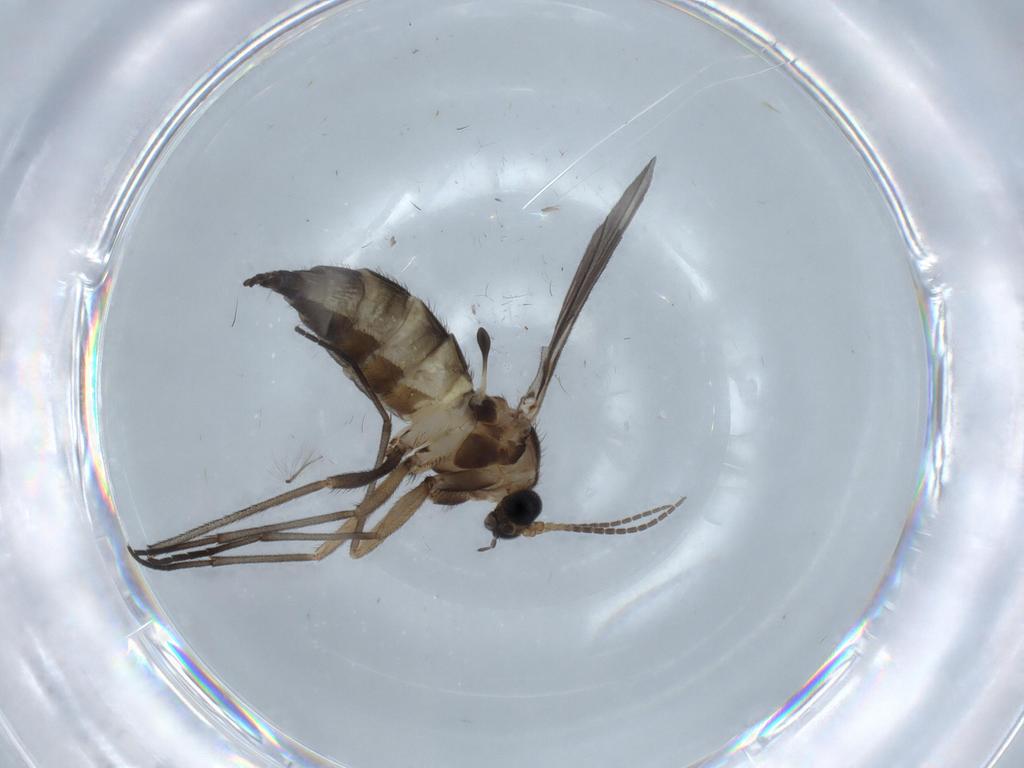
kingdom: Animalia
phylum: Arthropoda
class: Insecta
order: Diptera
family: Sciaridae
